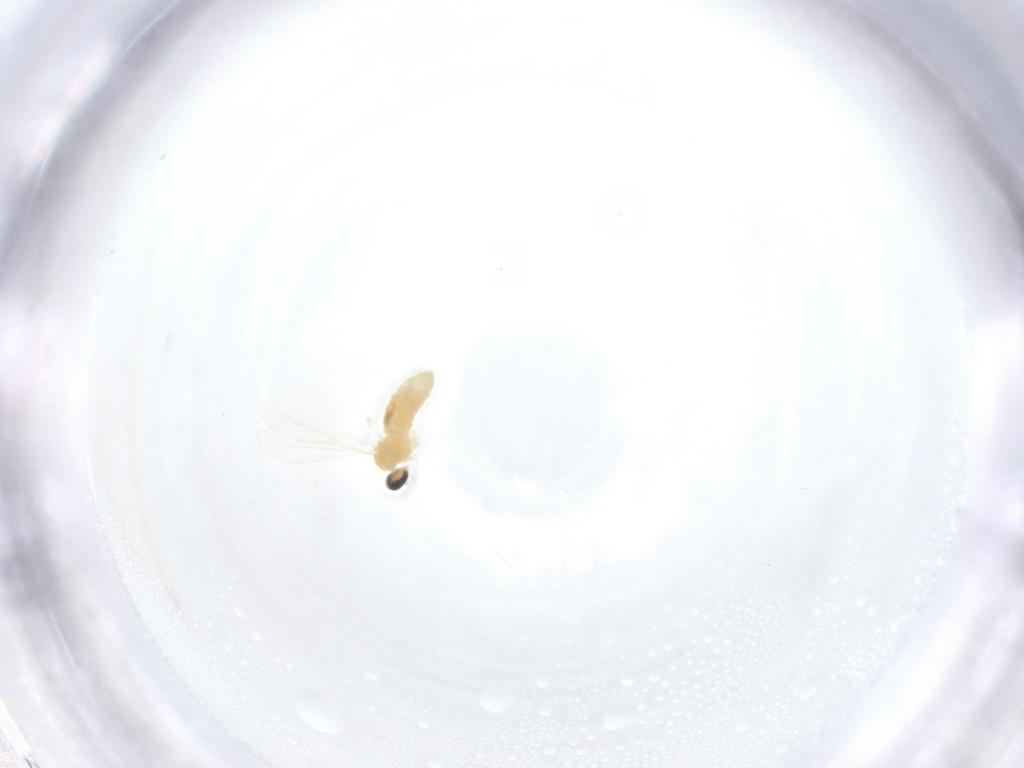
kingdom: Animalia
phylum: Arthropoda
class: Insecta
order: Diptera
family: Cecidomyiidae
